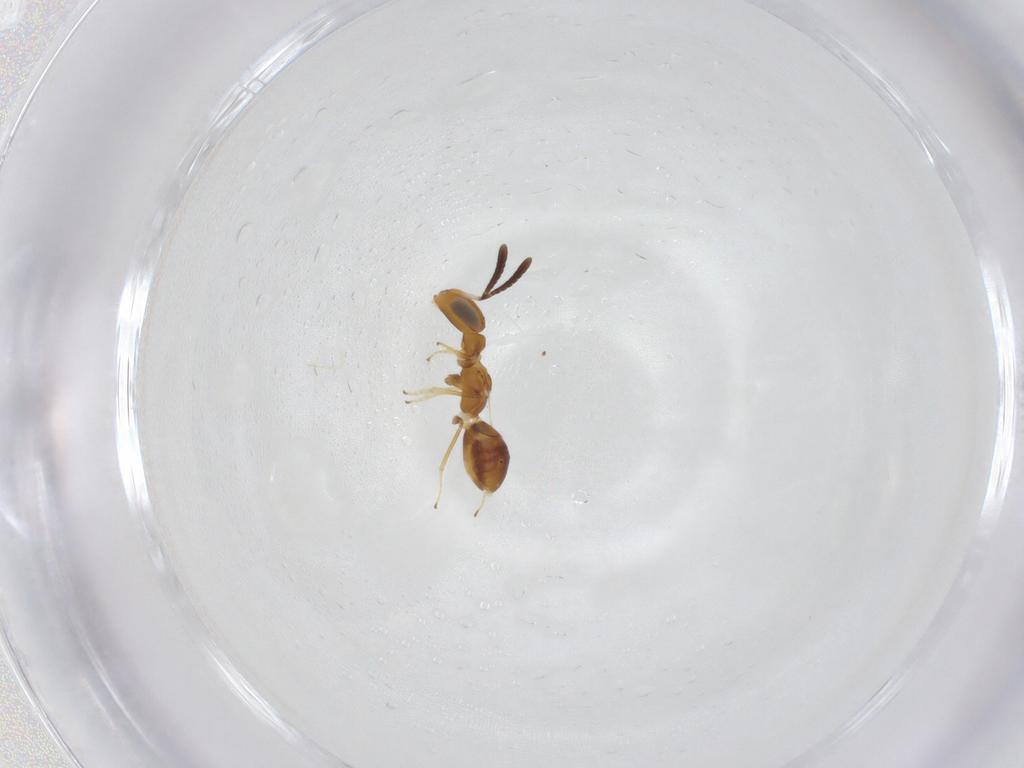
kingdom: Animalia
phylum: Arthropoda
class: Insecta
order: Hymenoptera
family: Encyrtidae
